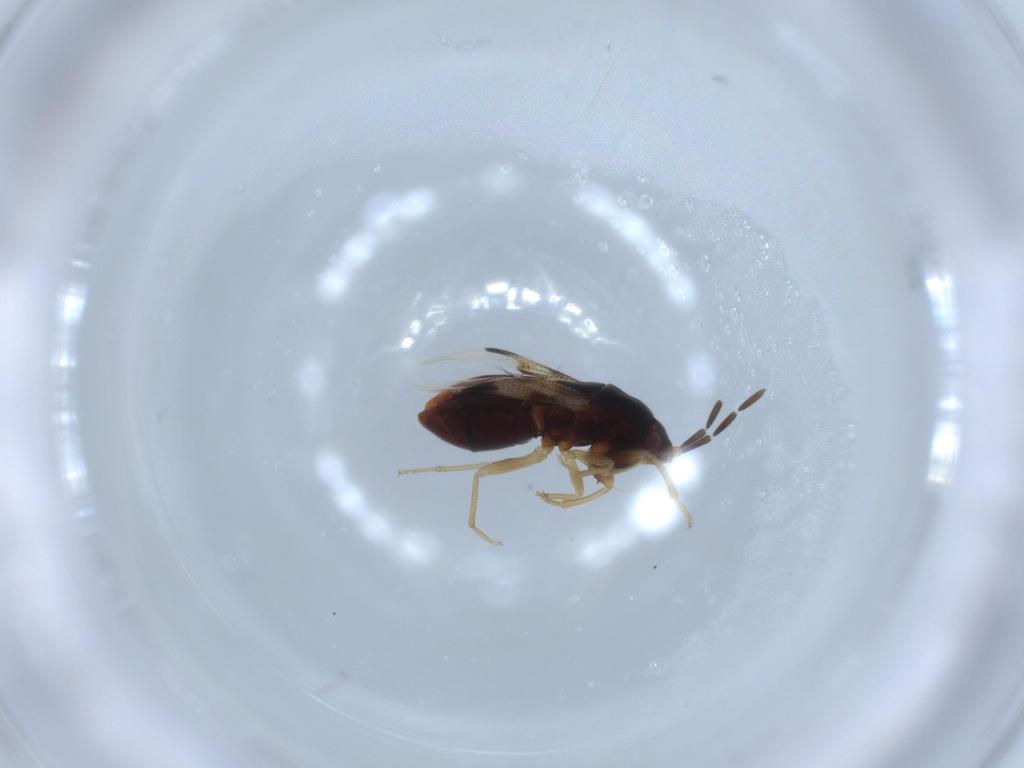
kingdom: Animalia
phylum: Arthropoda
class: Insecta
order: Hemiptera
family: Rhyparochromidae
